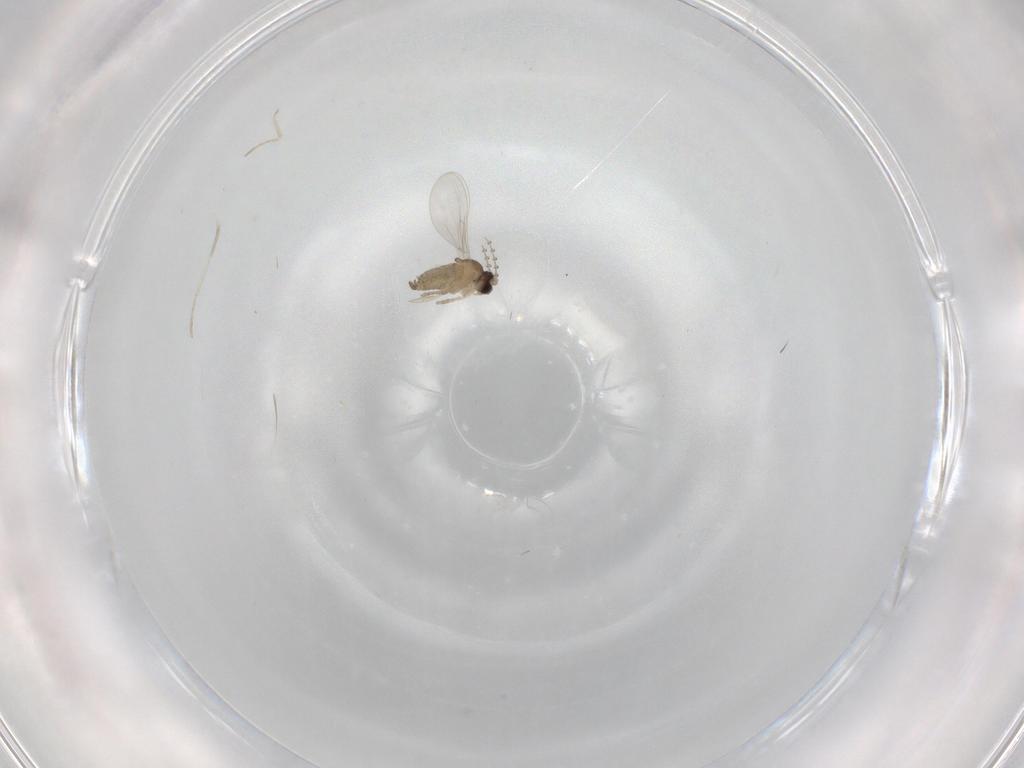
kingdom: Animalia
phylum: Arthropoda
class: Insecta
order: Diptera
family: Cecidomyiidae
